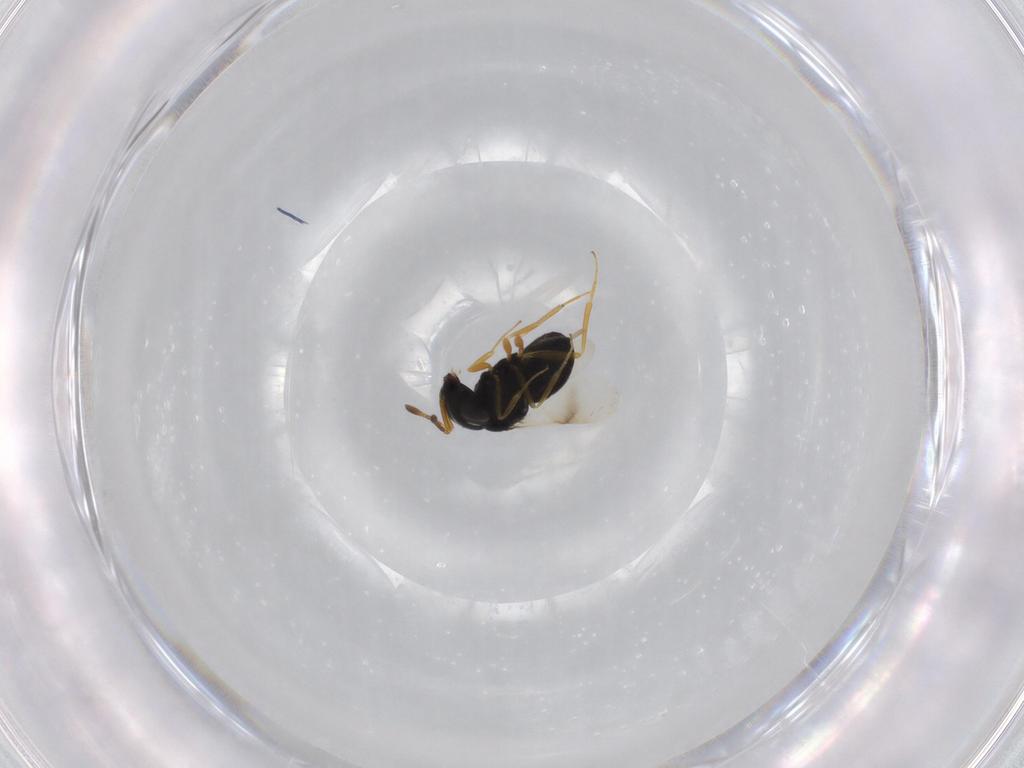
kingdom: Animalia
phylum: Arthropoda
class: Insecta
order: Hymenoptera
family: Scelionidae
